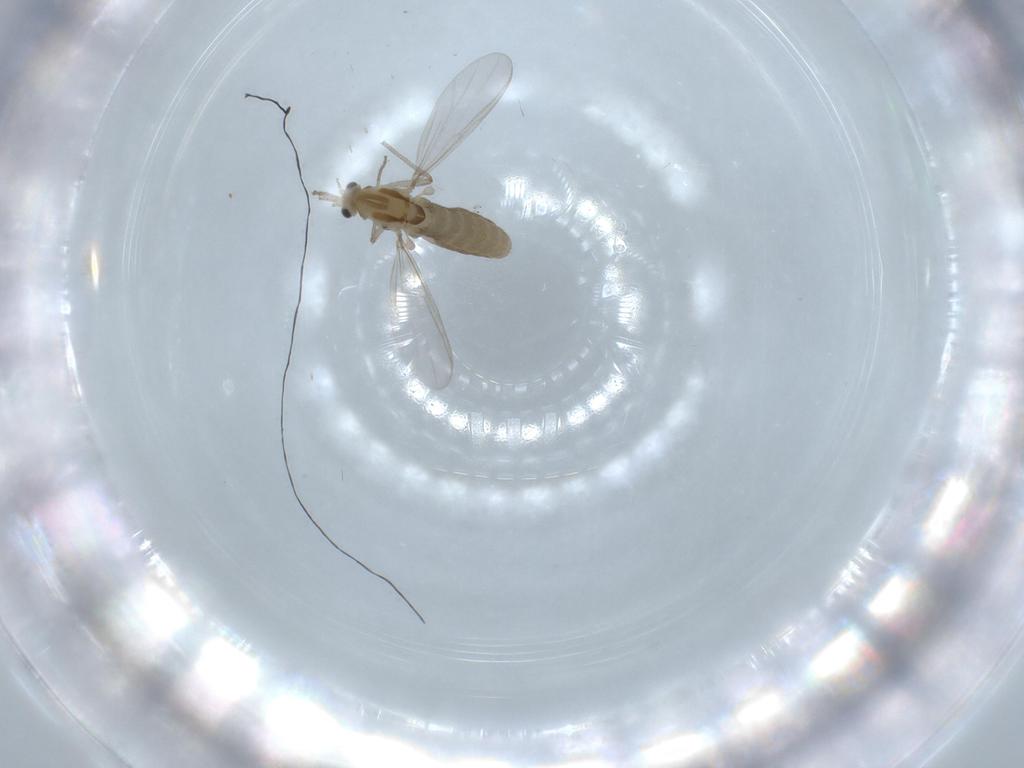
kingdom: Animalia
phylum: Arthropoda
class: Insecta
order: Diptera
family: Chironomidae
